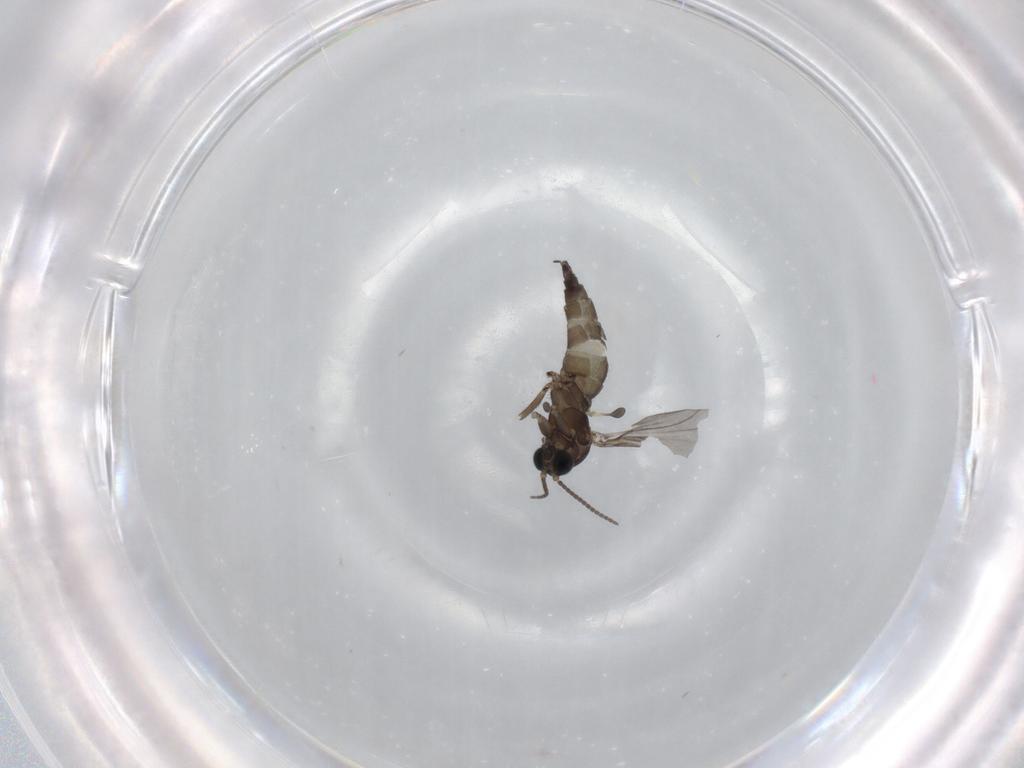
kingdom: Animalia
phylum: Arthropoda
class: Insecta
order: Diptera
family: Sciaridae
